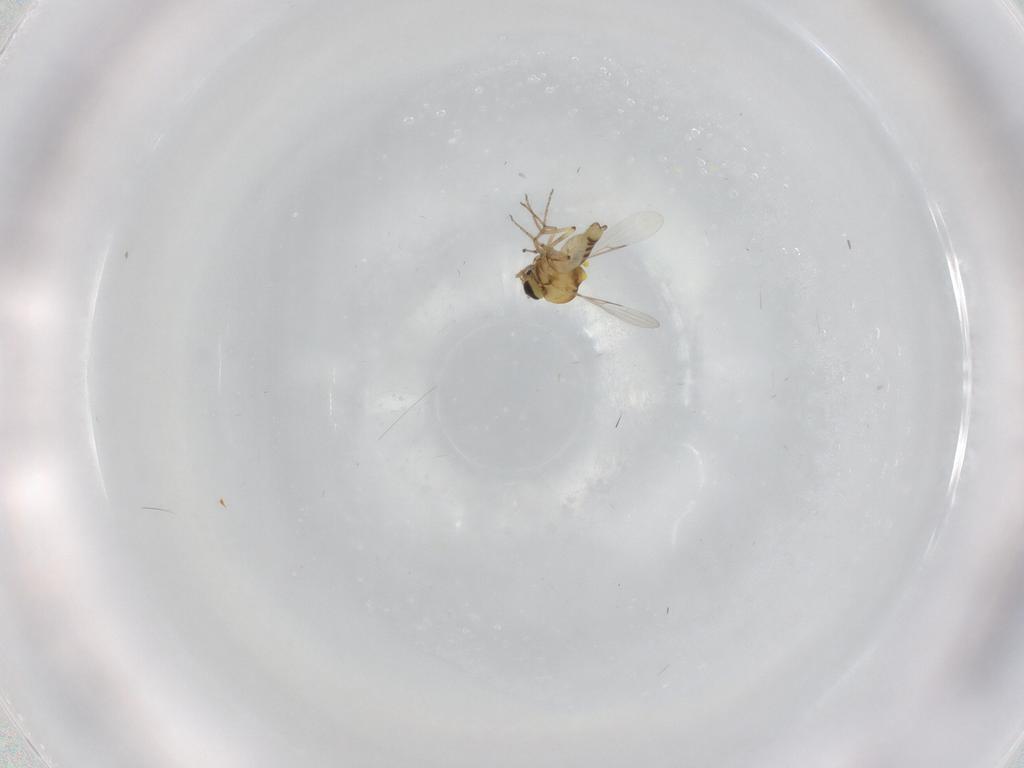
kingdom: Animalia
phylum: Arthropoda
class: Insecta
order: Diptera
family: Ceratopogonidae
